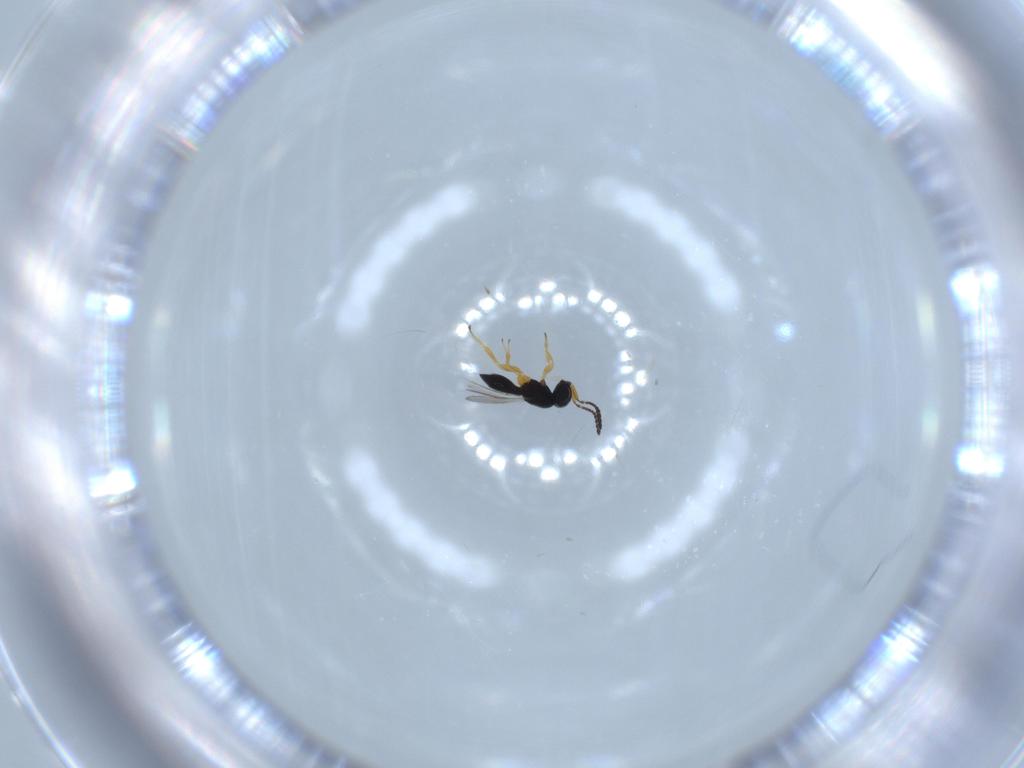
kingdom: Animalia
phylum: Arthropoda
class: Insecta
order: Hymenoptera
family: Scelionidae
